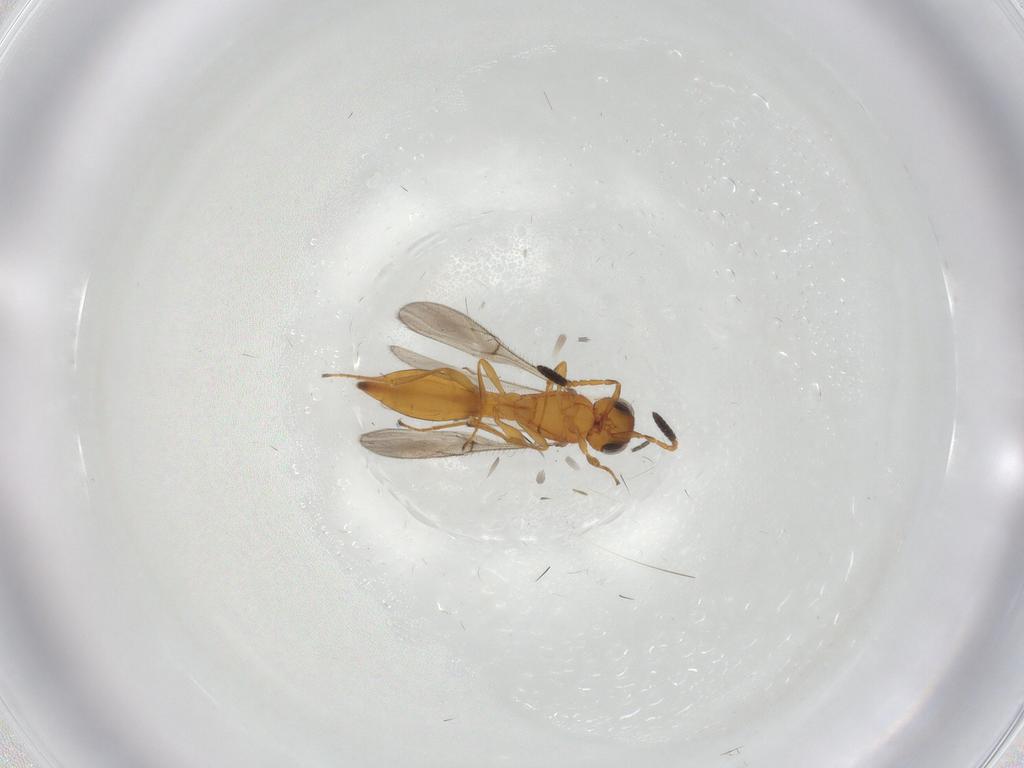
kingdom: Animalia
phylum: Arthropoda
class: Insecta
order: Hymenoptera
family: Scelionidae
